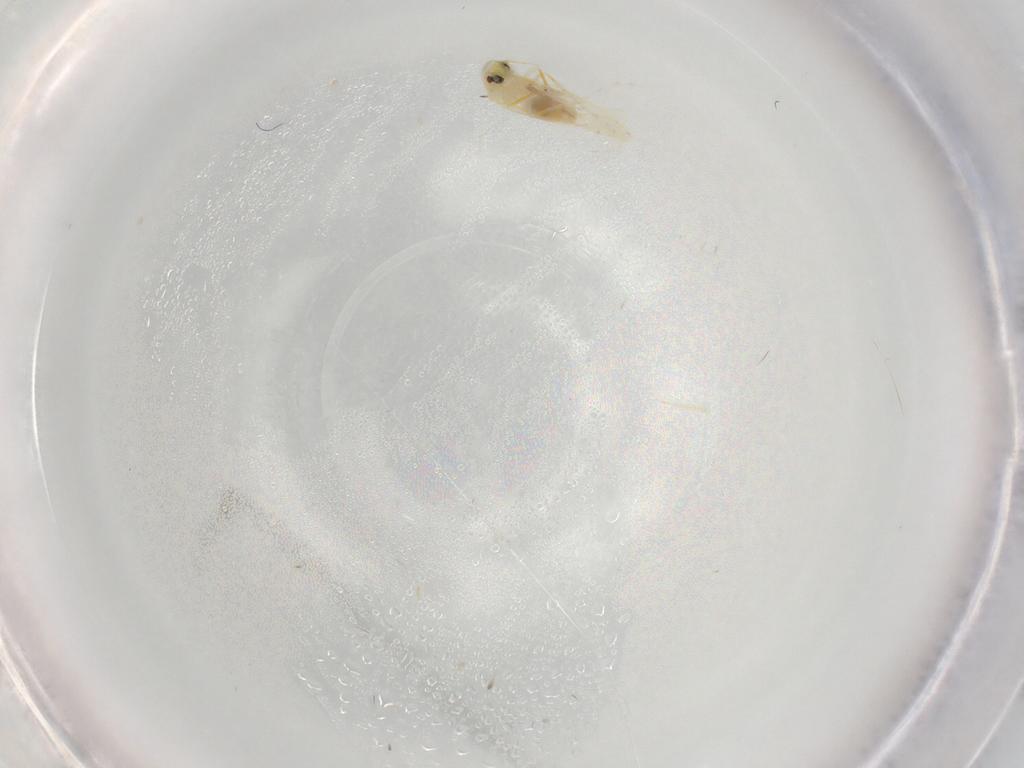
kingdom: Animalia
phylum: Arthropoda
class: Insecta
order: Hemiptera
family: Aleyrodidae
